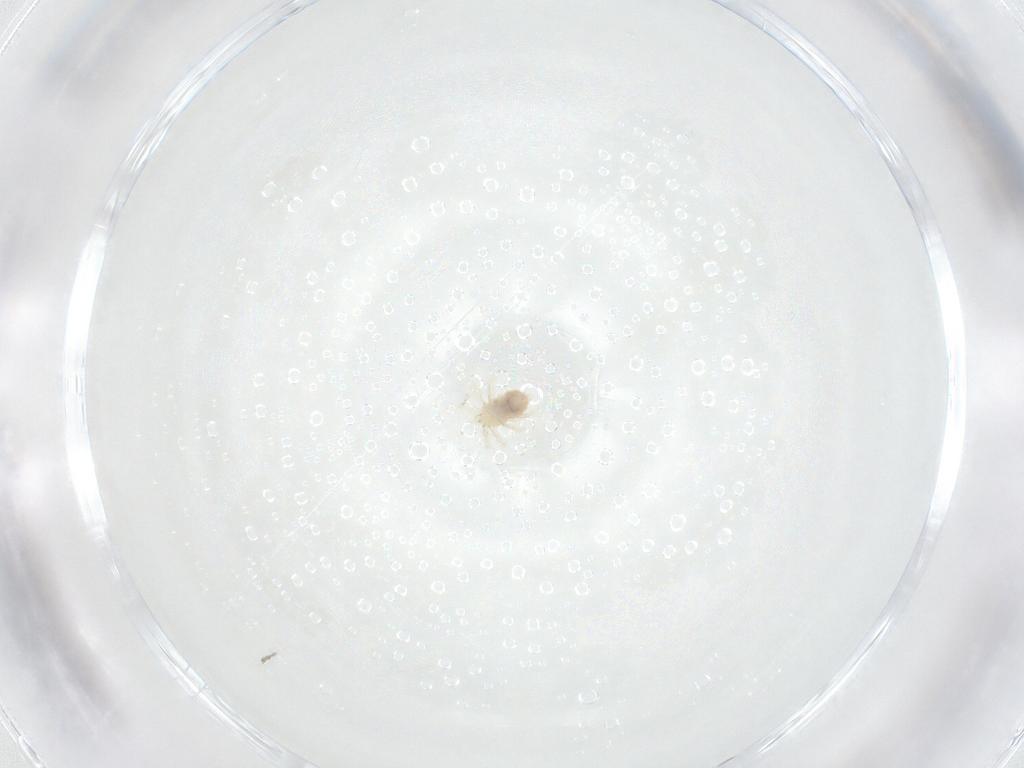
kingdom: Animalia
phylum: Arthropoda
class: Arachnida
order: Trombidiformes
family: Anystidae
